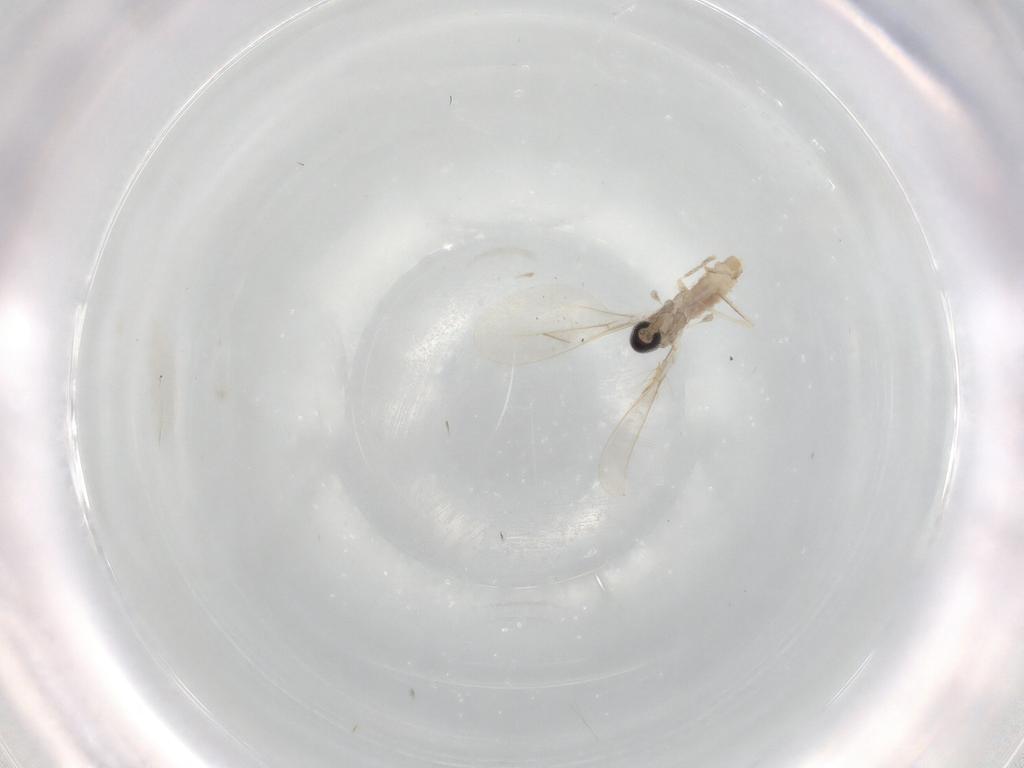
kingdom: Animalia
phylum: Arthropoda
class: Insecta
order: Diptera
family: Cecidomyiidae
